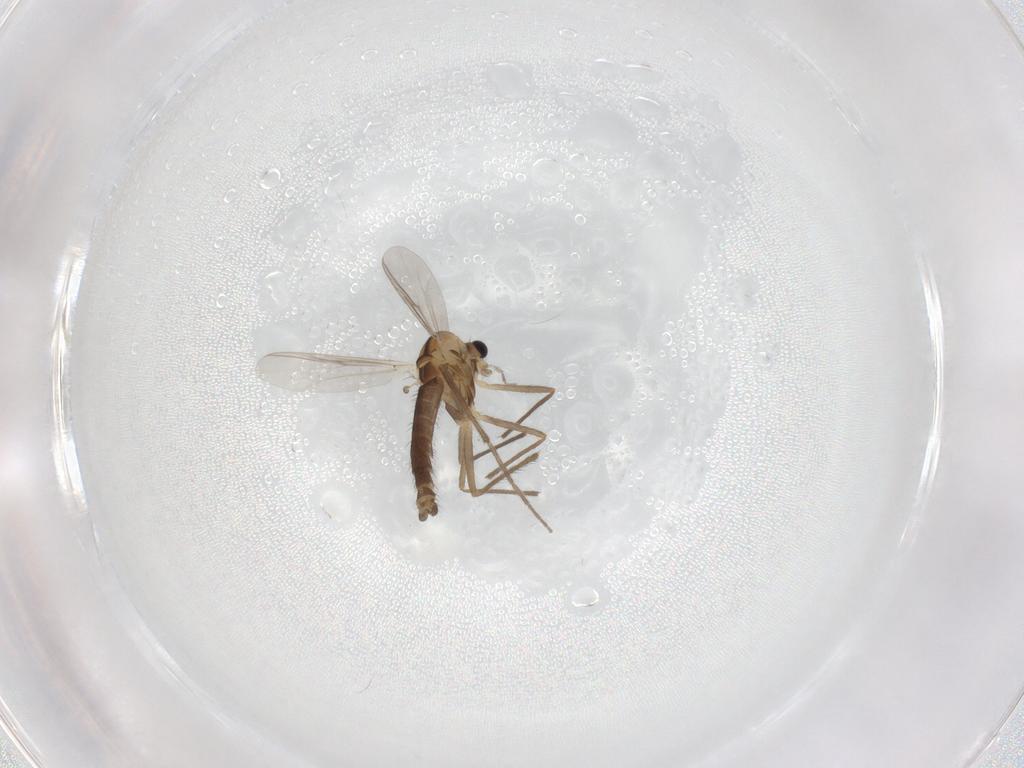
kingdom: Animalia
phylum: Arthropoda
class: Insecta
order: Diptera
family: Chironomidae
